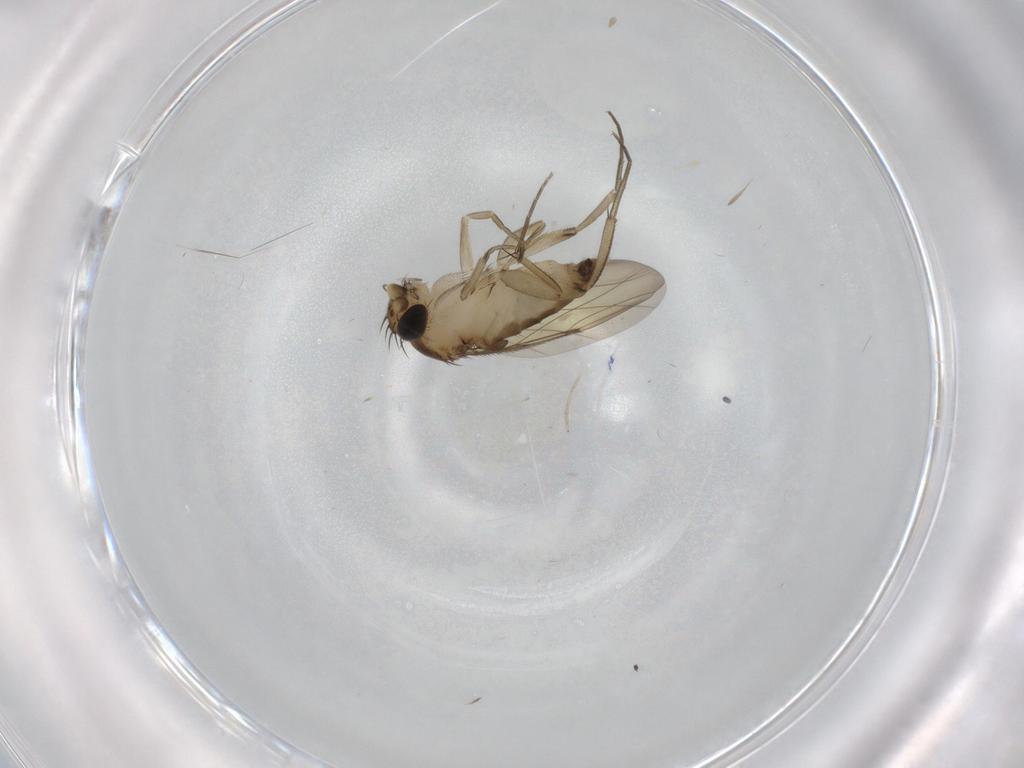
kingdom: Animalia
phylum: Arthropoda
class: Insecta
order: Diptera
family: Phoridae
